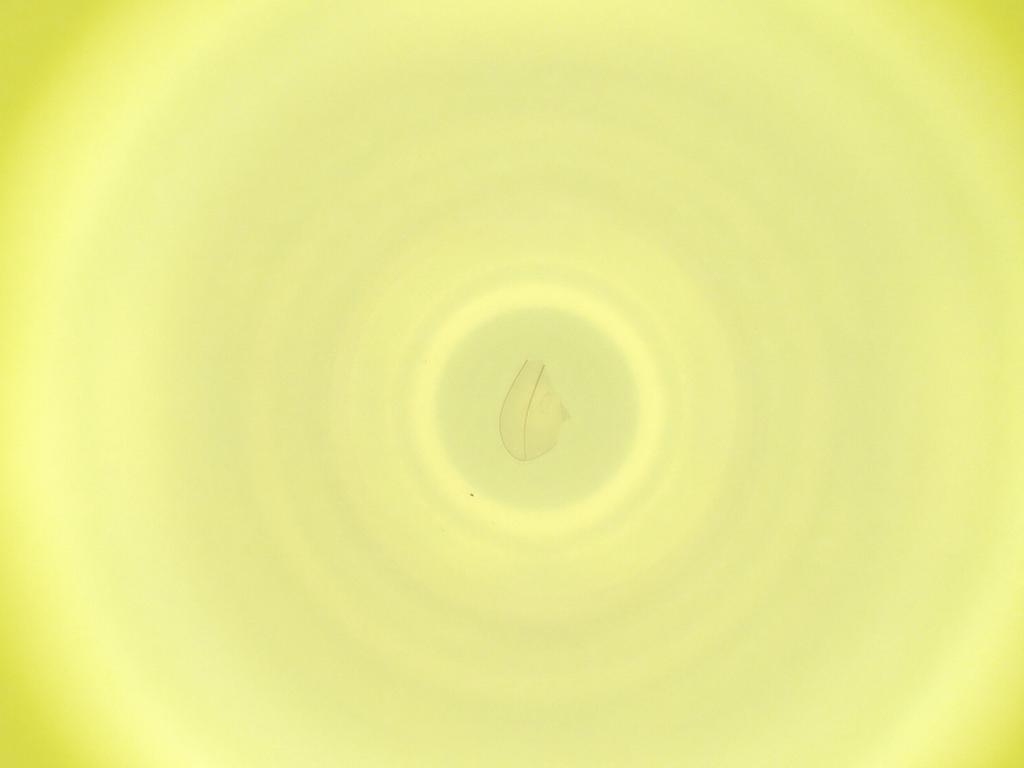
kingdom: Animalia
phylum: Arthropoda
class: Insecta
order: Diptera
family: Cecidomyiidae
